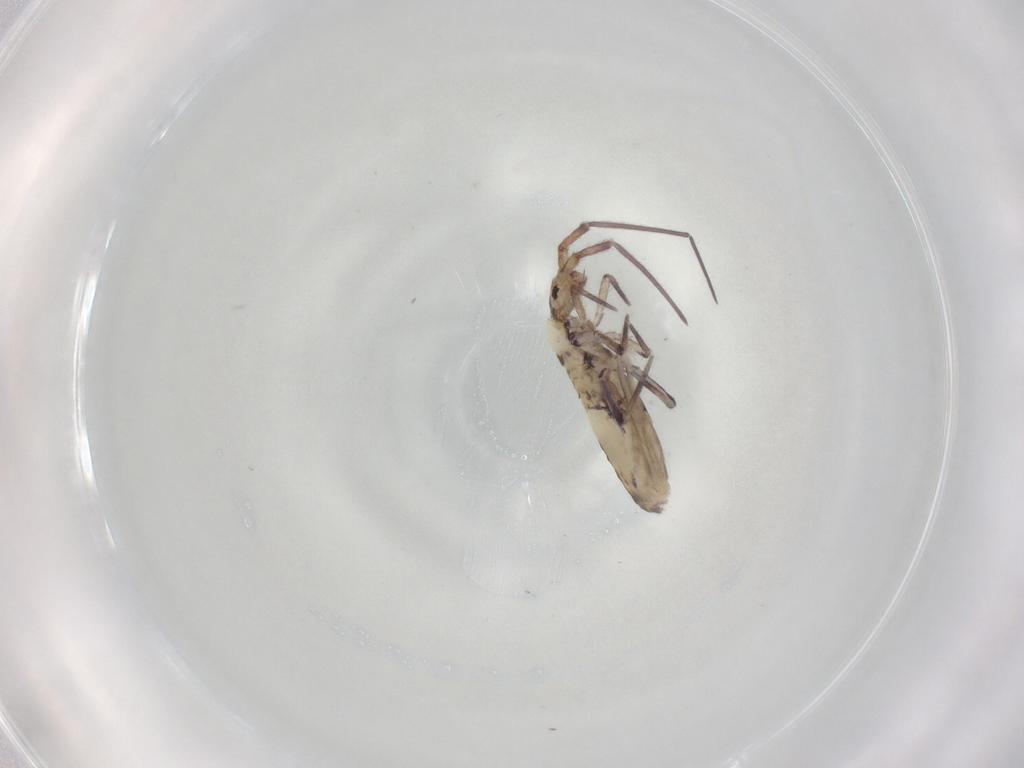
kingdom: Animalia
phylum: Arthropoda
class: Collembola
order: Entomobryomorpha
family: Entomobryidae
